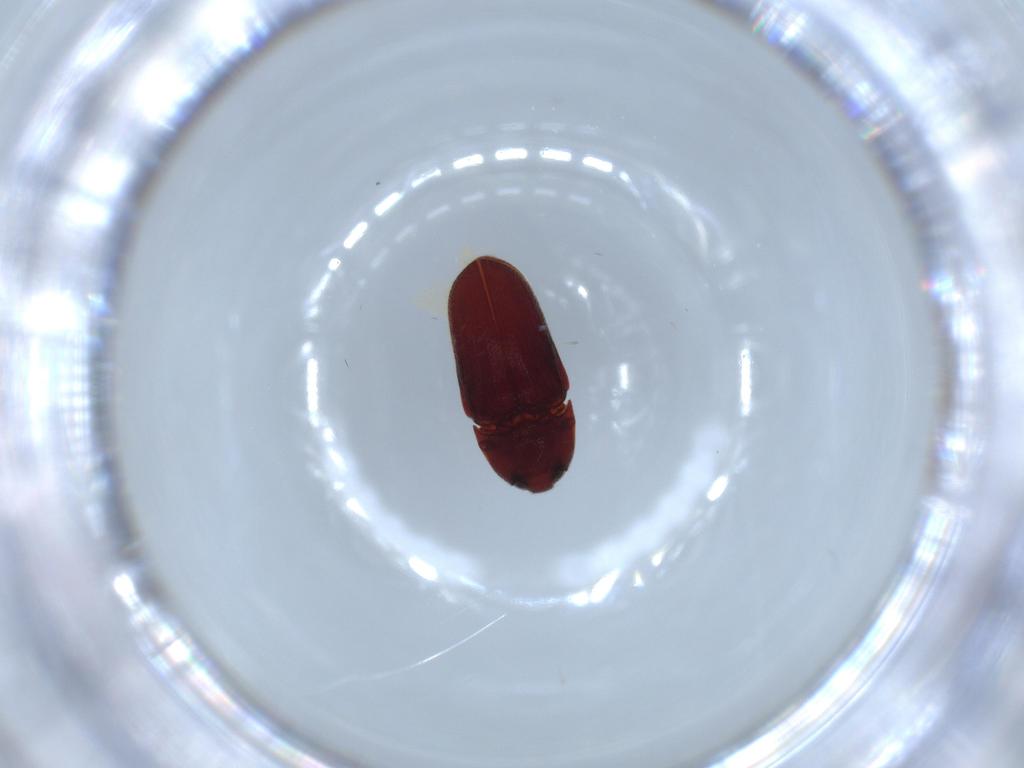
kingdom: Animalia
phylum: Arthropoda
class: Insecta
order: Coleoptera
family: Throscidae
